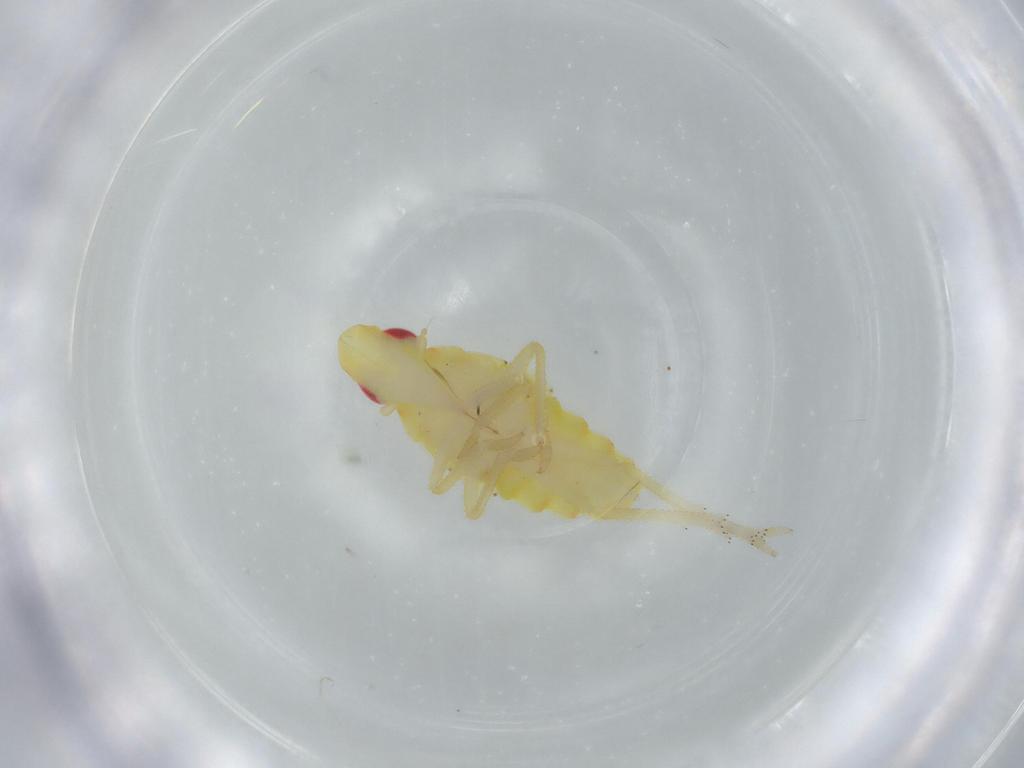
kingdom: Animalia
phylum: Arthropoda
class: Insecta
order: Hemiptera
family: Tropiduchidae
